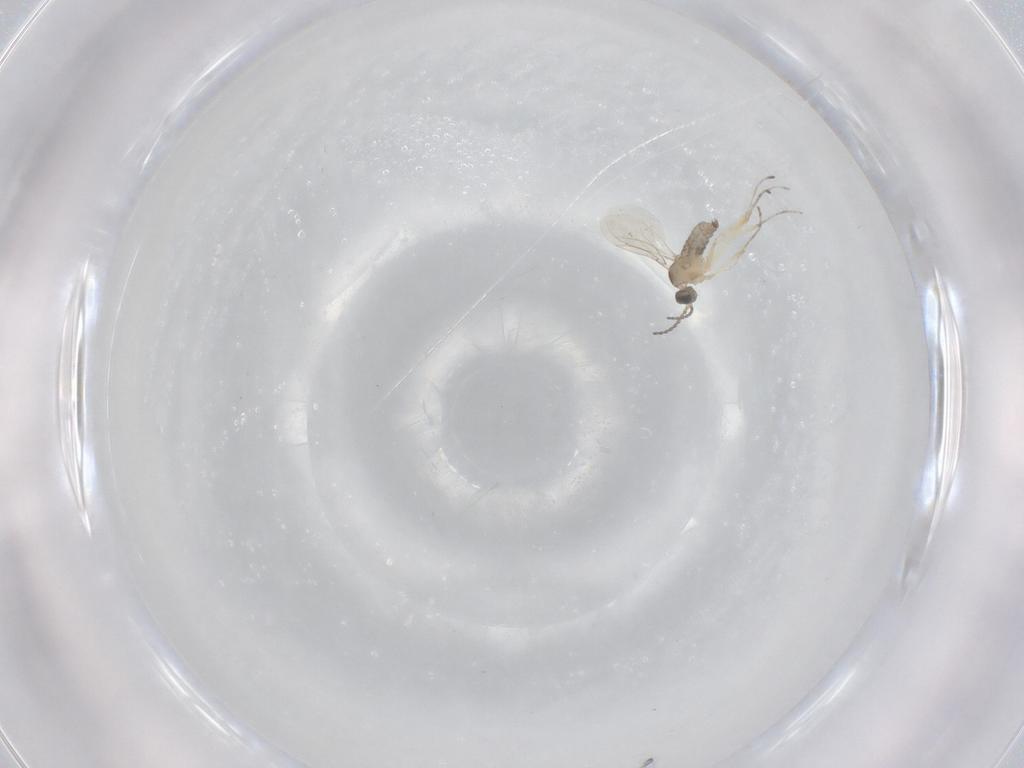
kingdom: Animalia
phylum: Arthropoda
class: Insecta
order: Diptera
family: Cecidomyiidae
